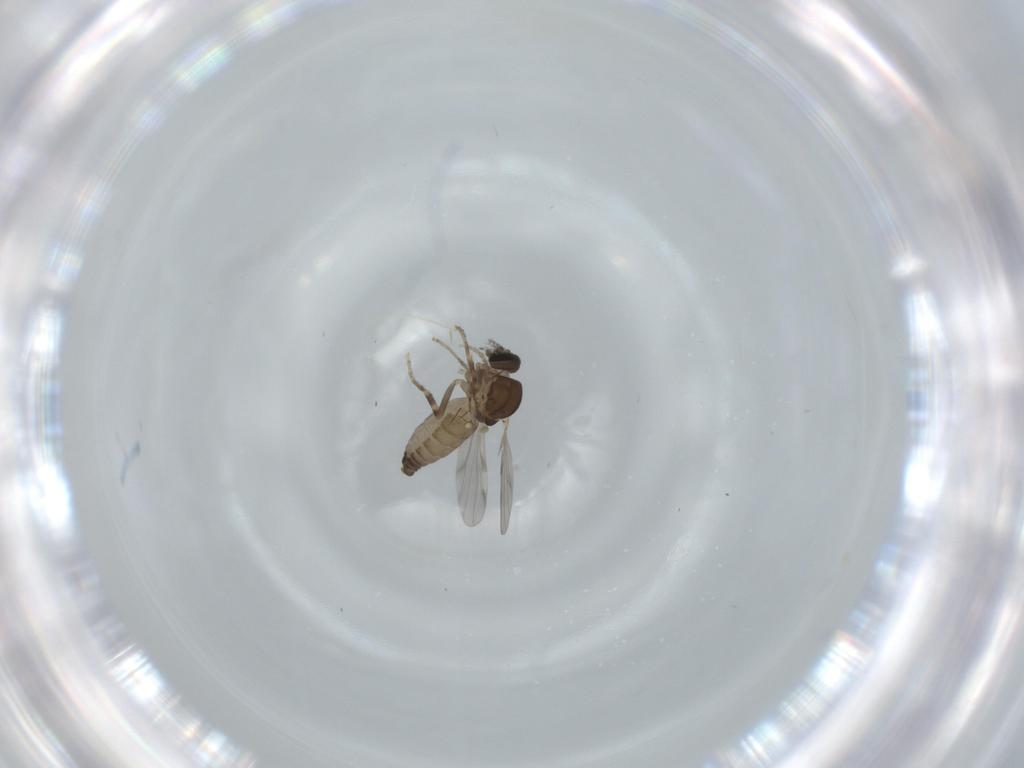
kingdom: Animalia
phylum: Arthropoda
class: Insecta
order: Diptera
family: Ceratopogonidae
